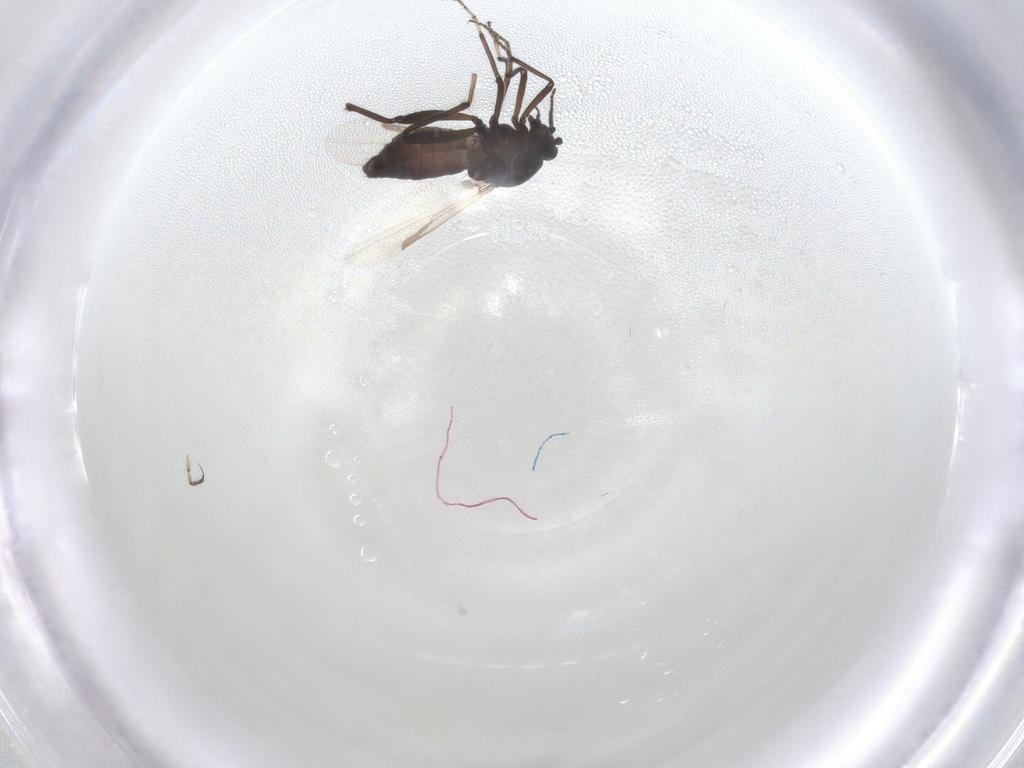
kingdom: Animalia
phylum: Arthropoda
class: Insecta
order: Diptera
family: Ceratopogonidae
